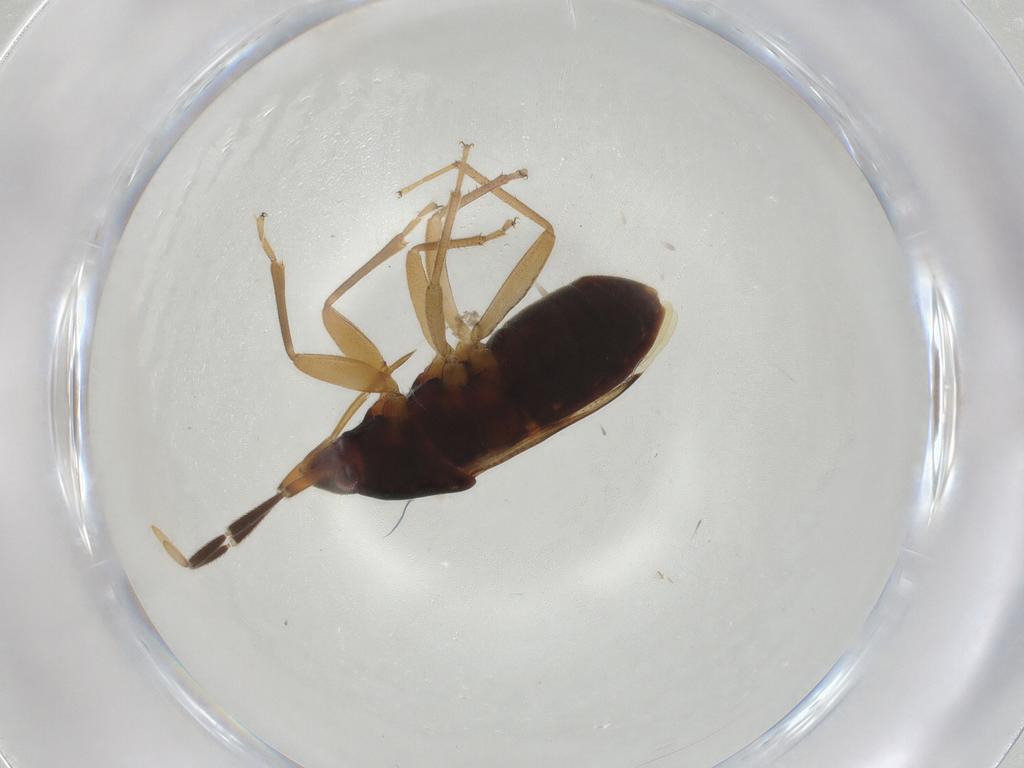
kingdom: Animalia
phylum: Arthropoda
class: Insecta
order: Hemiptera
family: Rhyparochromidae
